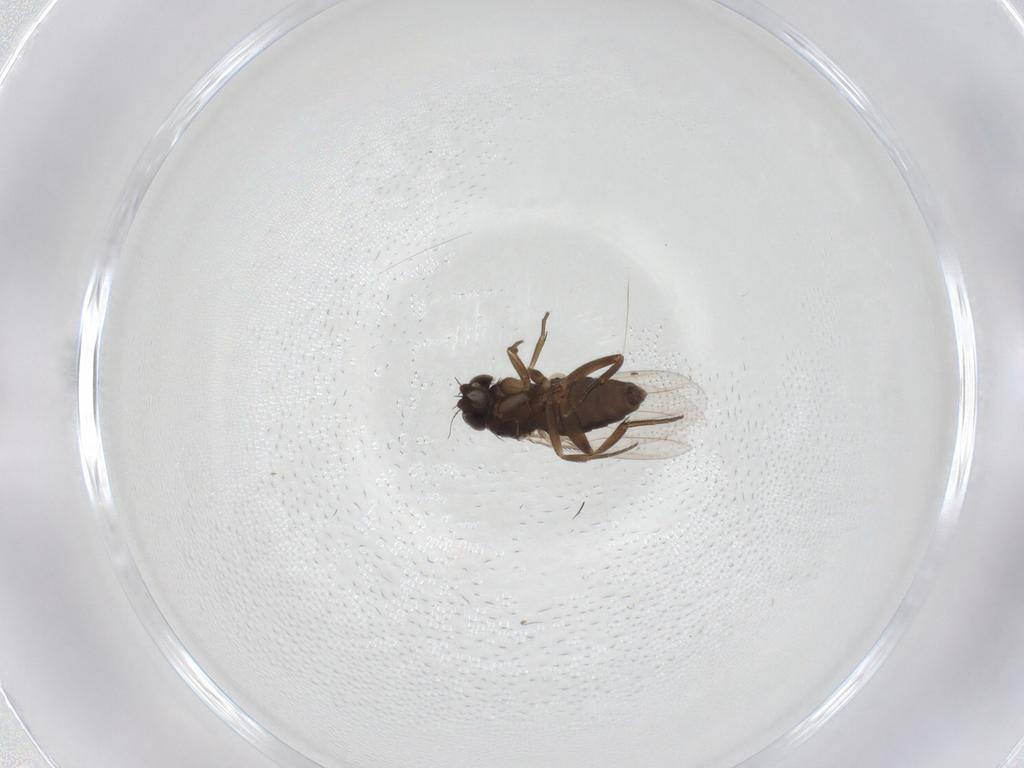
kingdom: Animalia
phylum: Arthropoda
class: Insecta
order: Diptera
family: Phoridae
